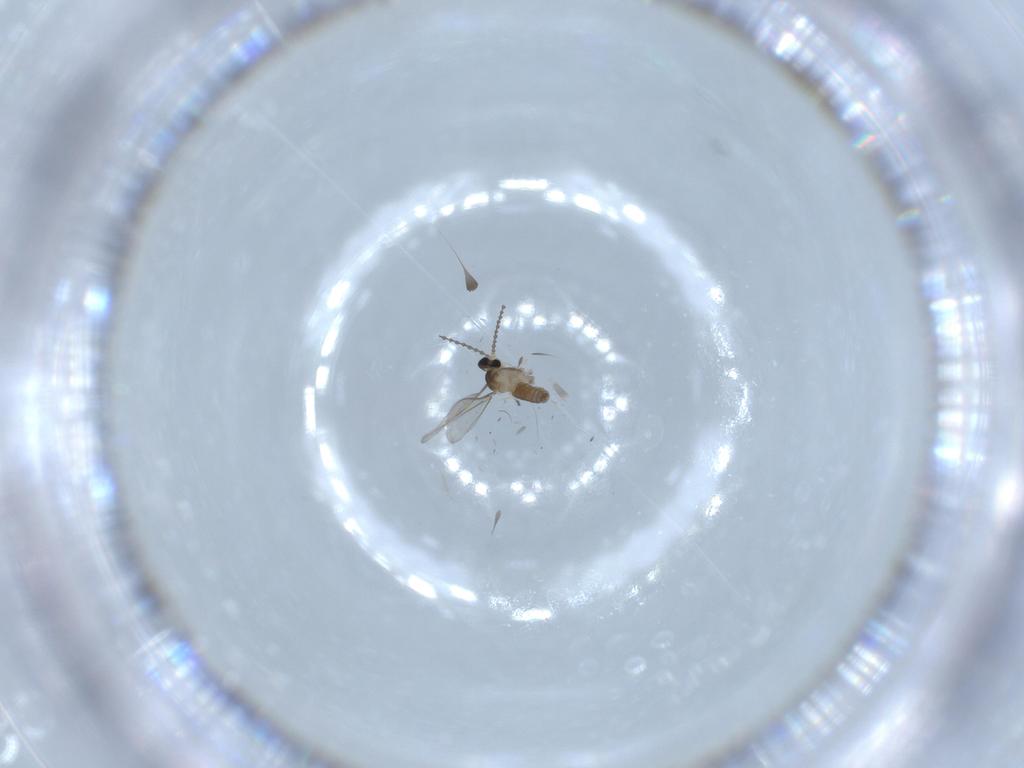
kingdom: Animalia
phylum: Arthropoda
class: Insecta
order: Diptera
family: Cecidomyiidae
